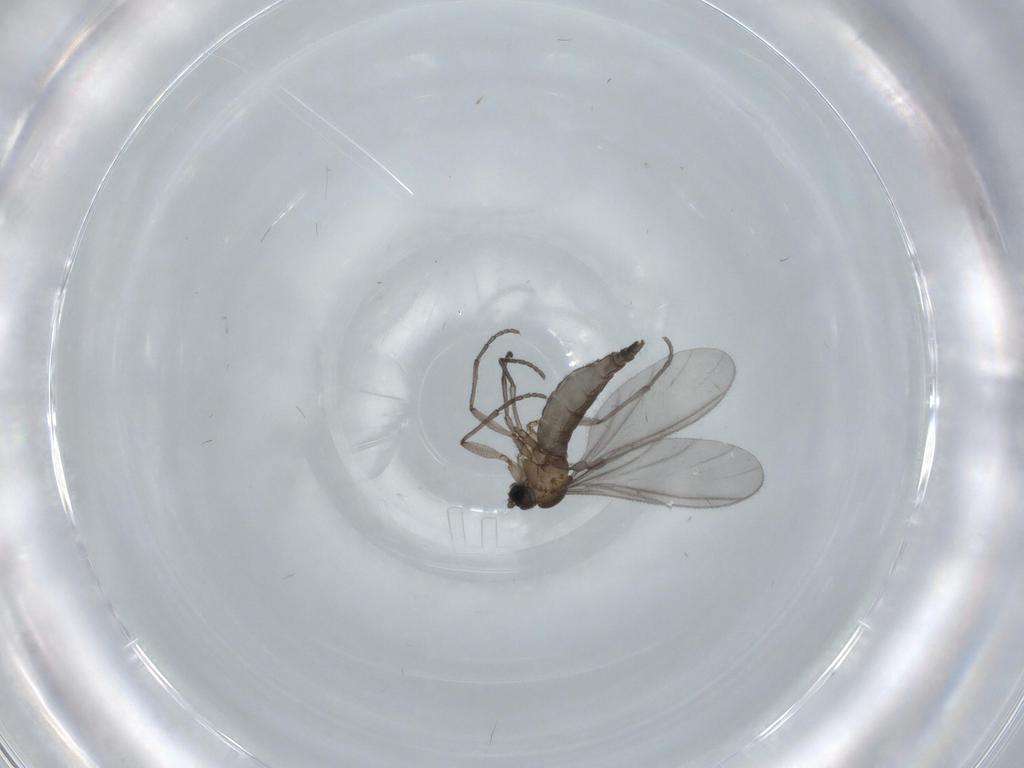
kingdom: Animalia
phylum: Arthropoda
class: Insecta
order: Diptera
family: Sciaridae
